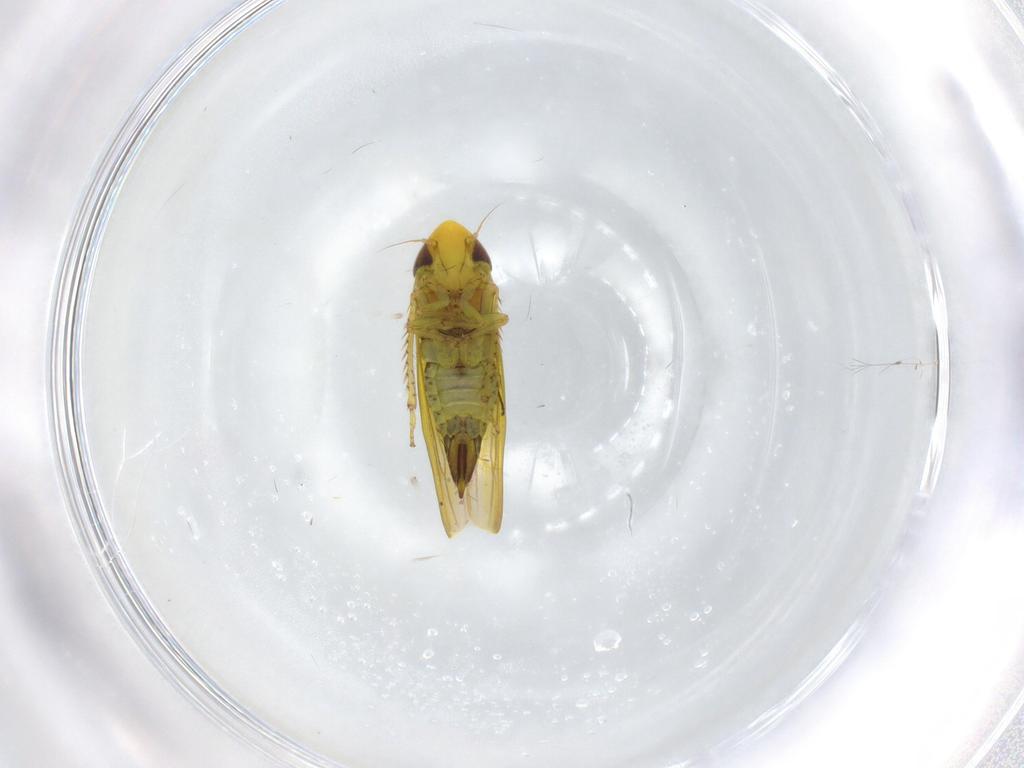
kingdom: Animalia
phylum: Arthropoda
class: Insecta
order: Hemiptera
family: Cicadellidae
